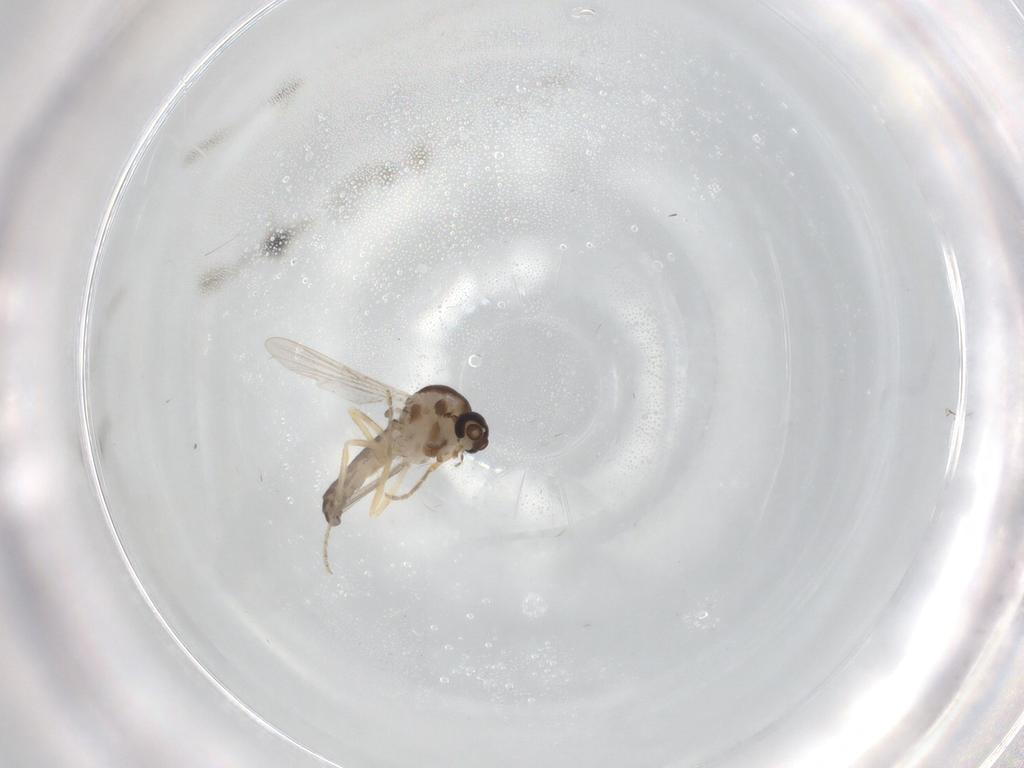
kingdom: Animalia
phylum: Arthropoda
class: Insecta
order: Diptera
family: Ceratopogonidae
